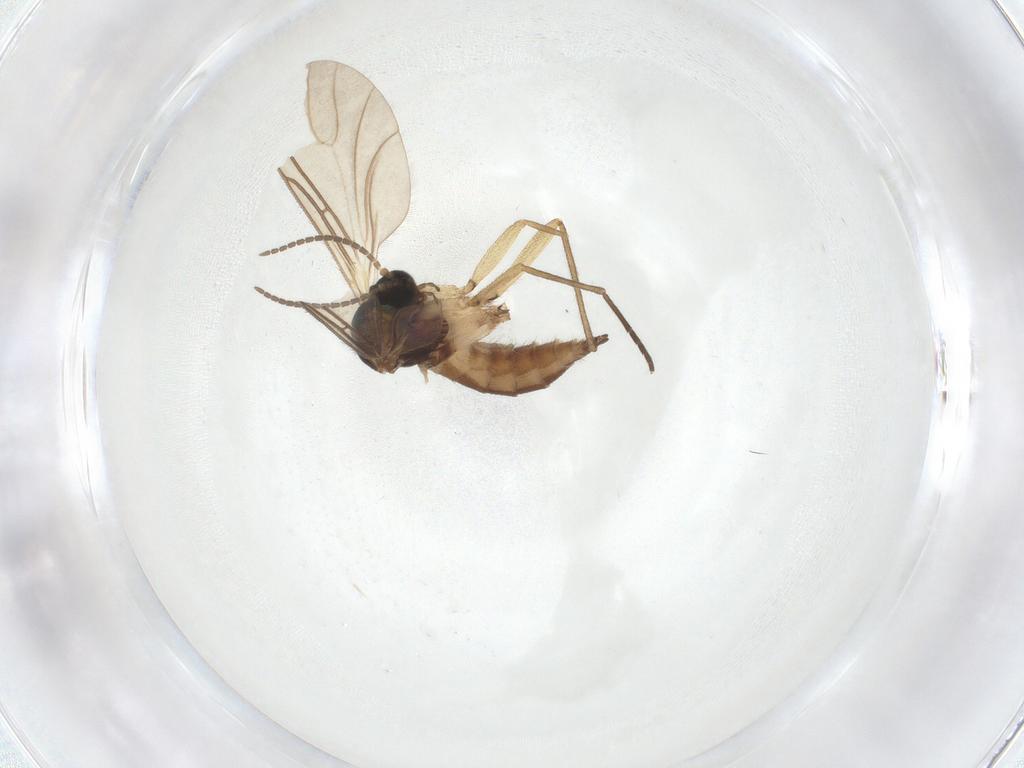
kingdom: Animalia
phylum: Arthropoda
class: Insecta
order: Diptera
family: Sciaridae
